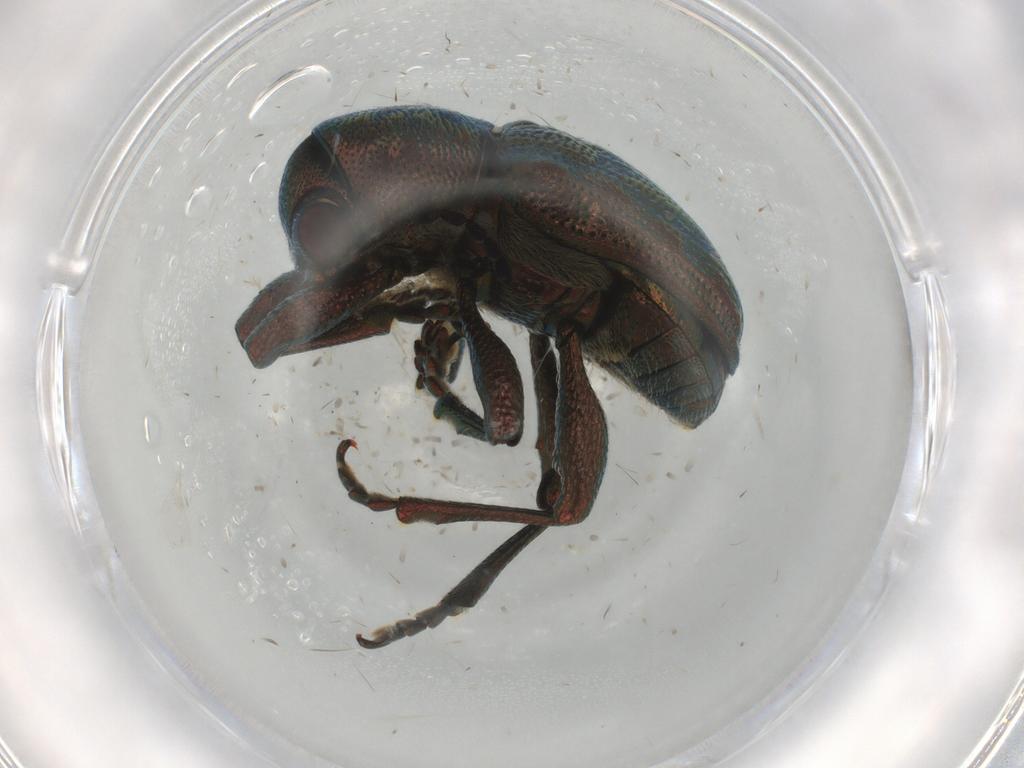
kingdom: Animalia
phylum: Arthropoda
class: Insecta
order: Coleoptera
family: Chrysomelidae
